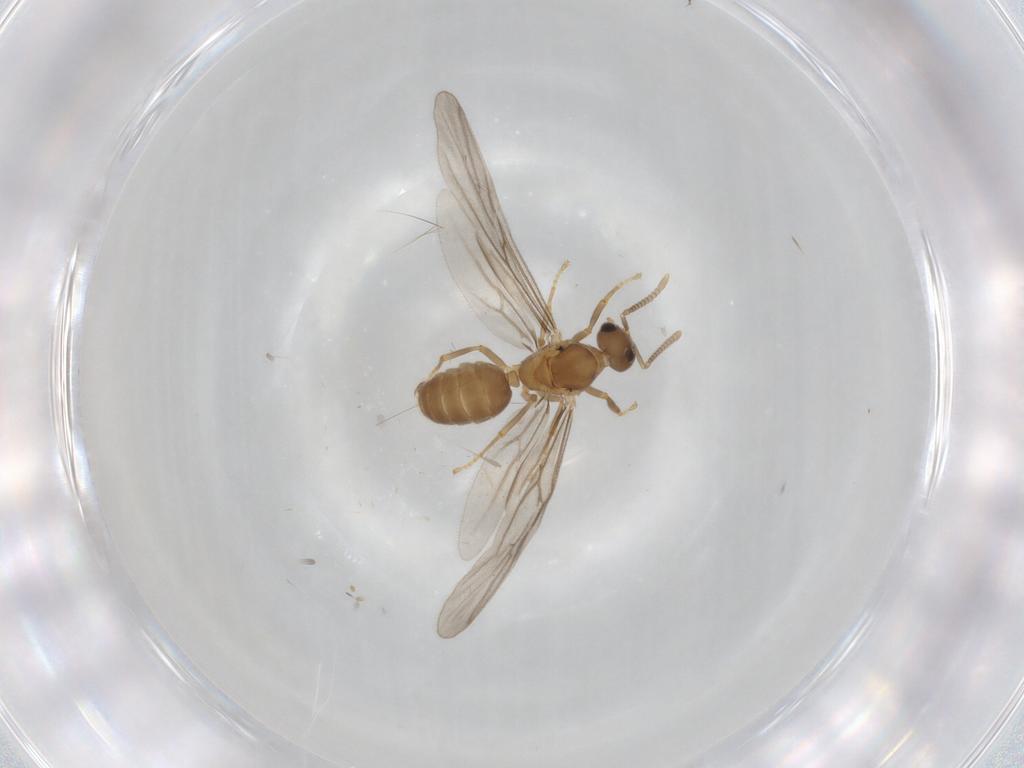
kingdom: Animalia
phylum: Arthropoda
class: Insecta
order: Hymenoptera
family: Formicidae
